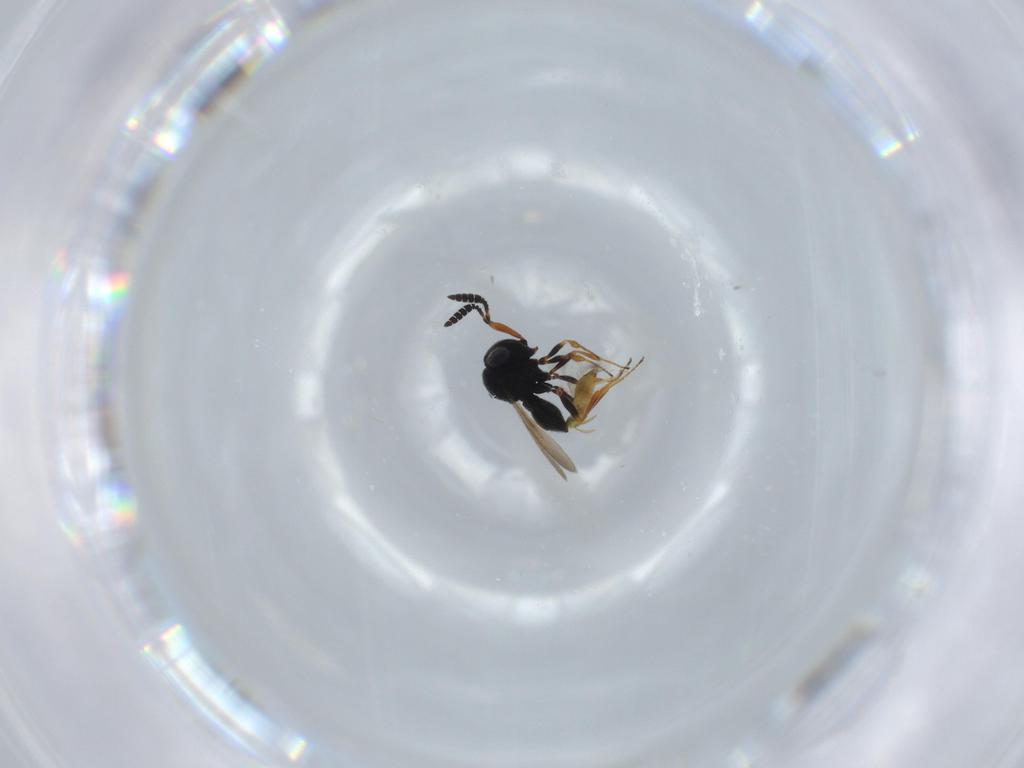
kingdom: Animalia
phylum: Arthropoda
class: Insecta
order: Hymenoptera
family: Scelionidae
